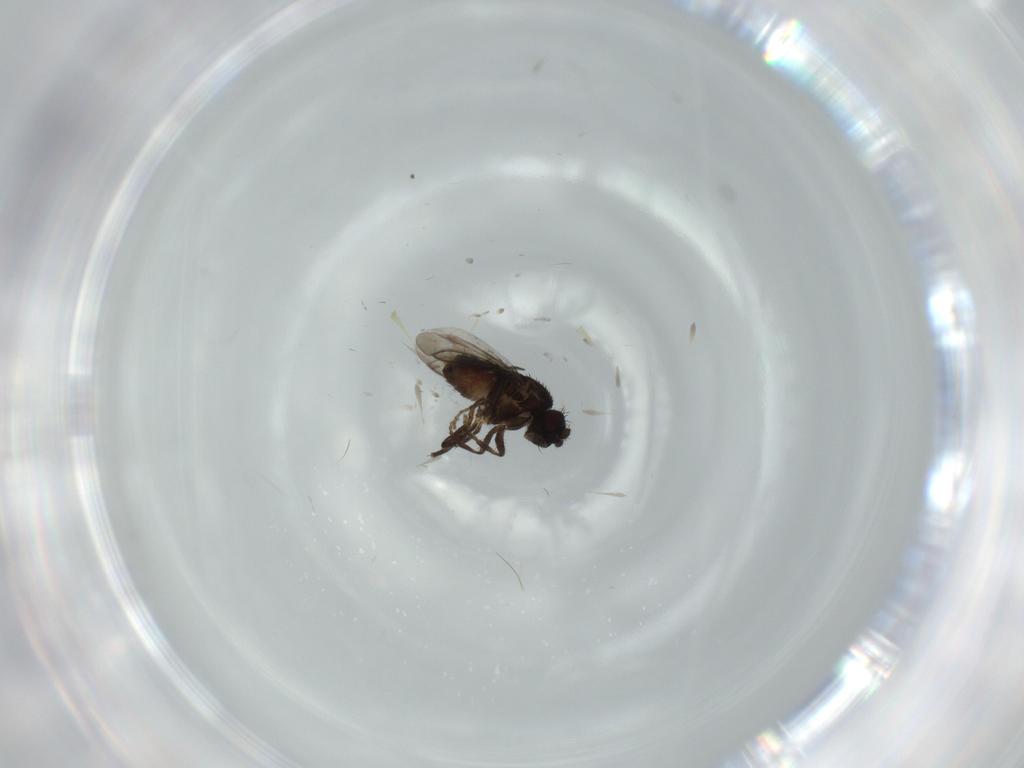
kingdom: Animalia
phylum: Arthropoda
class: Insecta
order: Diptera
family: Sphaeroceridae
